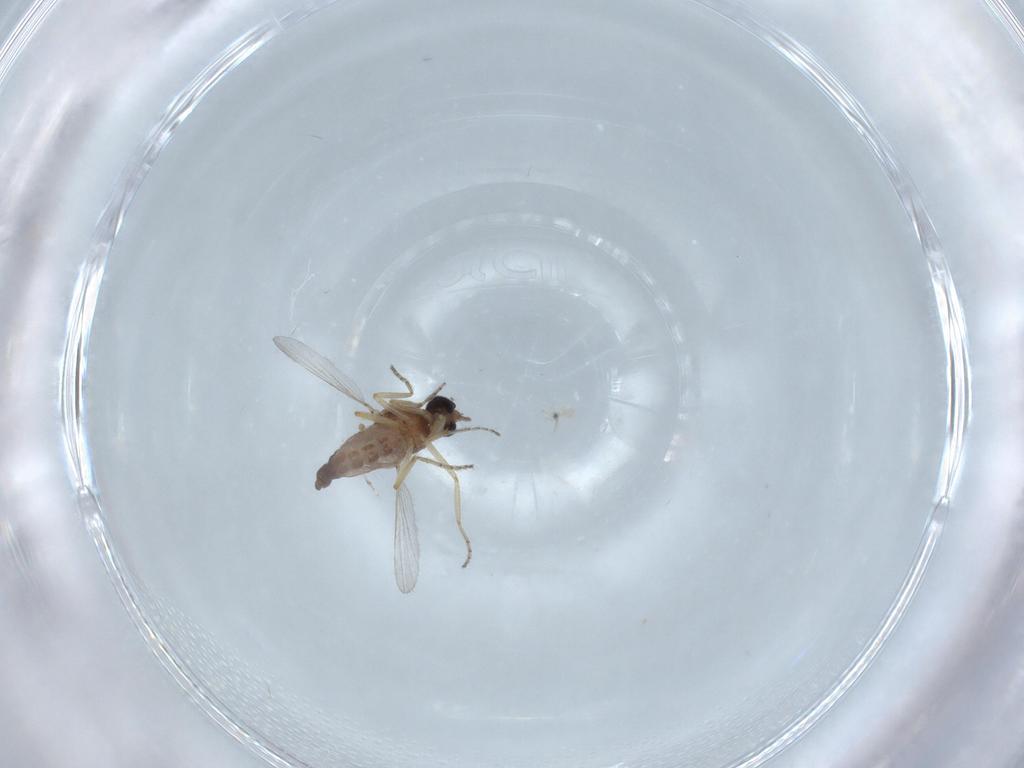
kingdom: Animalia
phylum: Arthropoda
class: Insecta
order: Diptera
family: Ceratopogonidae
